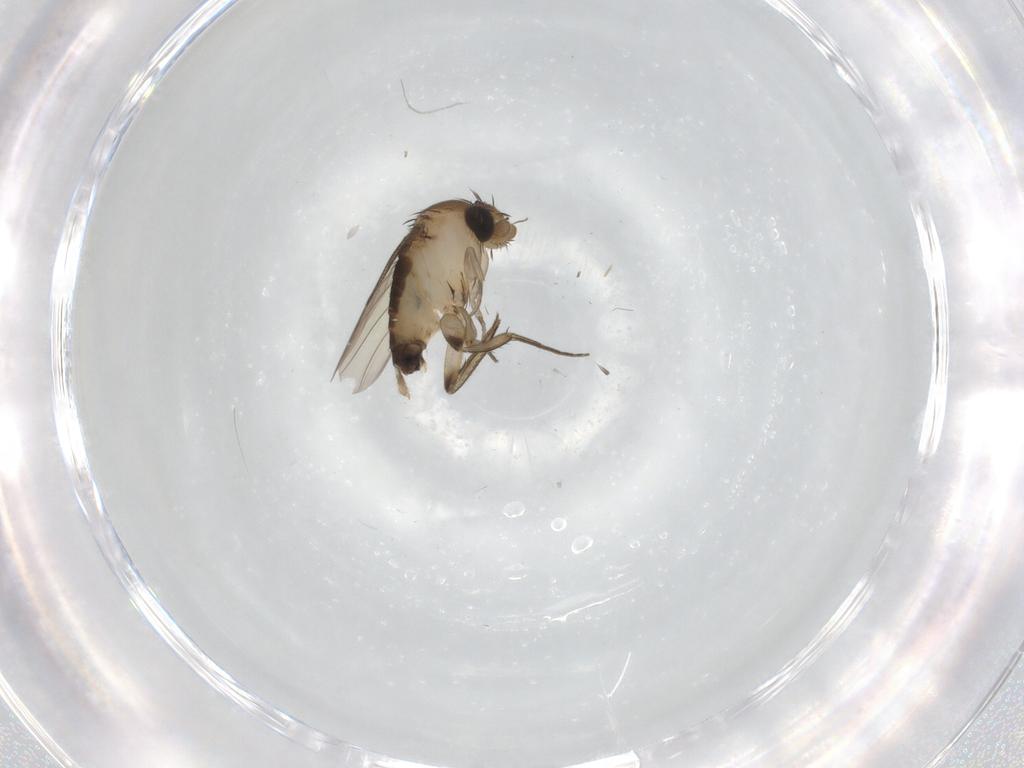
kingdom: Animalia
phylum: Arthropoda
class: Insecta
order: Diptera
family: Phoridae
